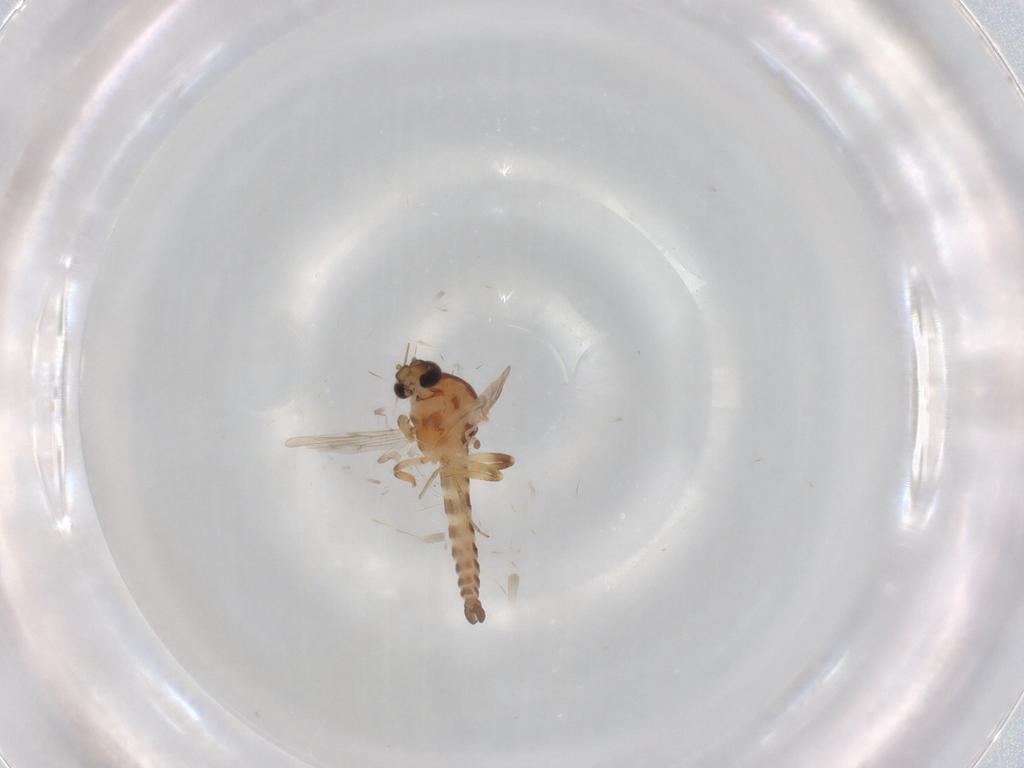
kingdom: Animalia
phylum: Arthropoda
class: Insecta
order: Diptera
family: Ceratopogonidae
